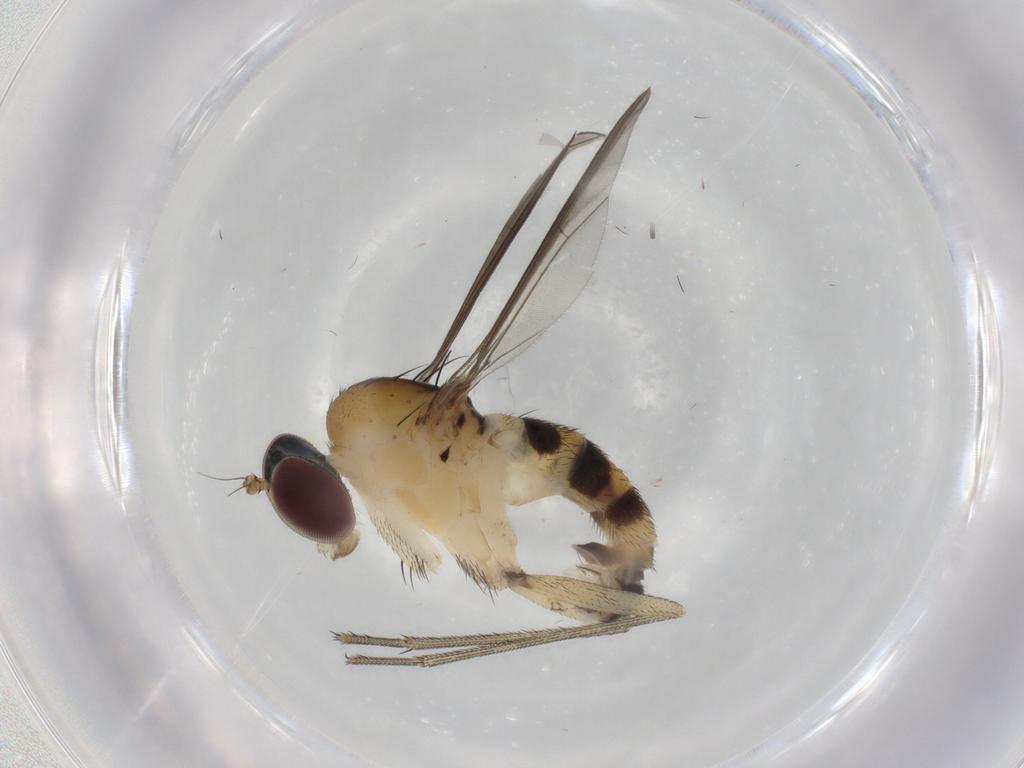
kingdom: Animalia
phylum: Arthropoda
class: Insecta
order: Diptera
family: Dolichopodidae
